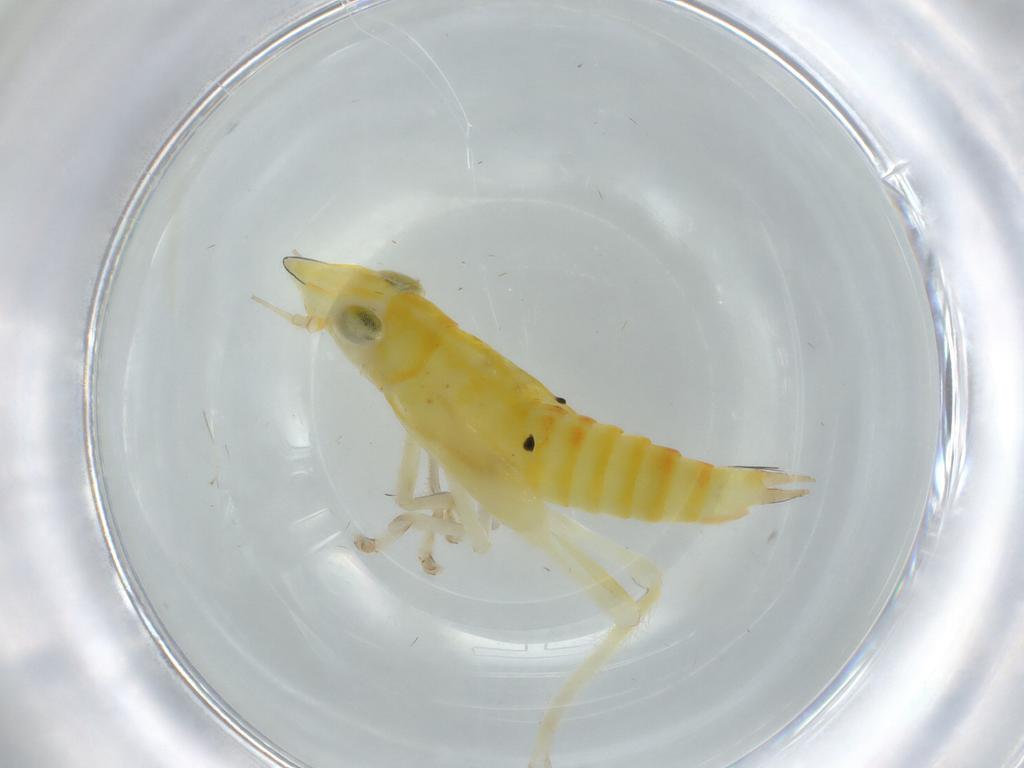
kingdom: Animalia
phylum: Arthropoda
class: Insecta
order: Hemiptera
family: Cicadellidae
